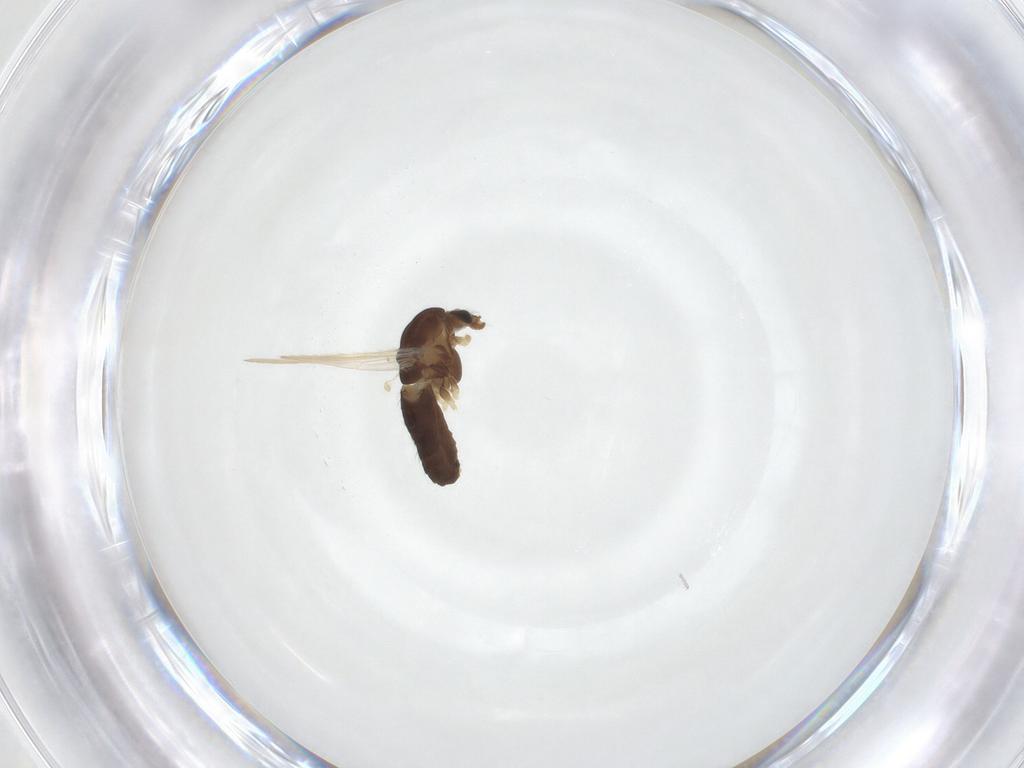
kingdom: Animalia
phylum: Arthropoda
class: Insecta
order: Diptera
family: Chironomidae
